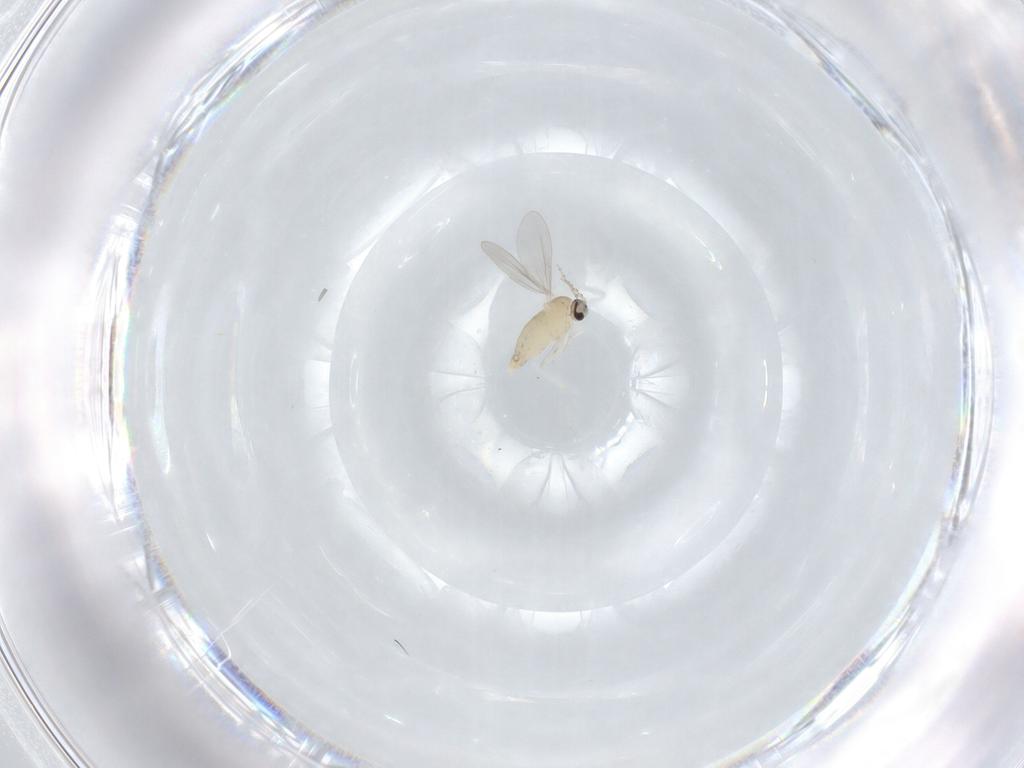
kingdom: Animalia
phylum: Arthropoda
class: Insecta
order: Diptera
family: Cecidomyiidae
